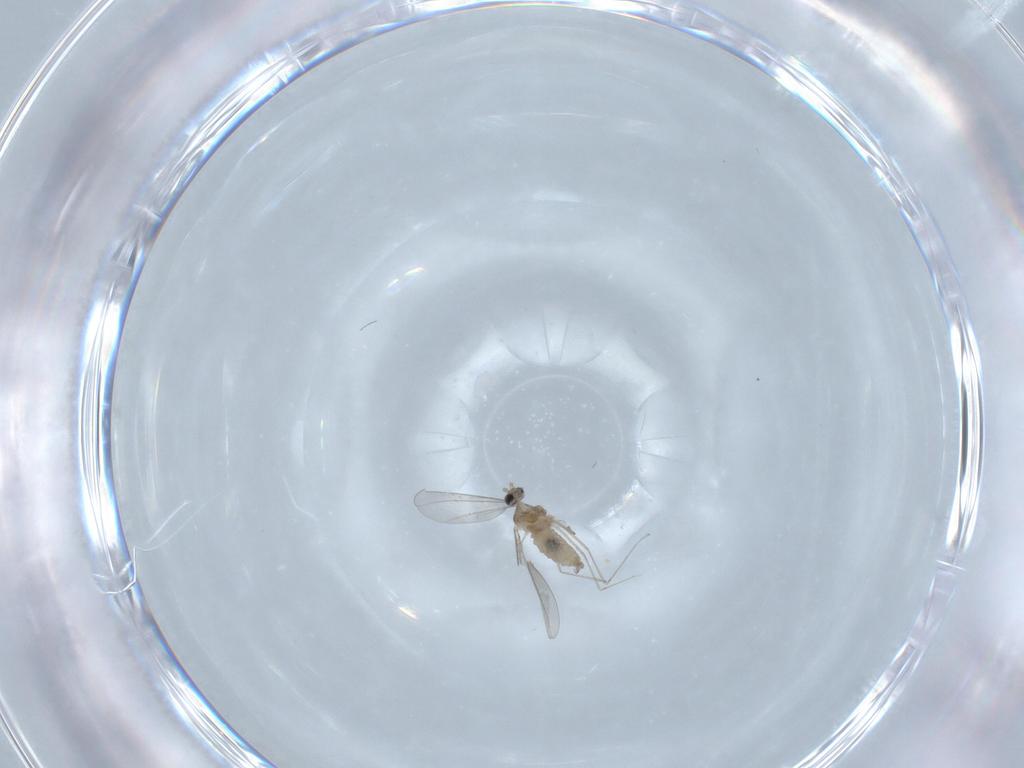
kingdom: Animalia
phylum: Arthropoda
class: Insecta
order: Diptera
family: Cecidomyiidae
